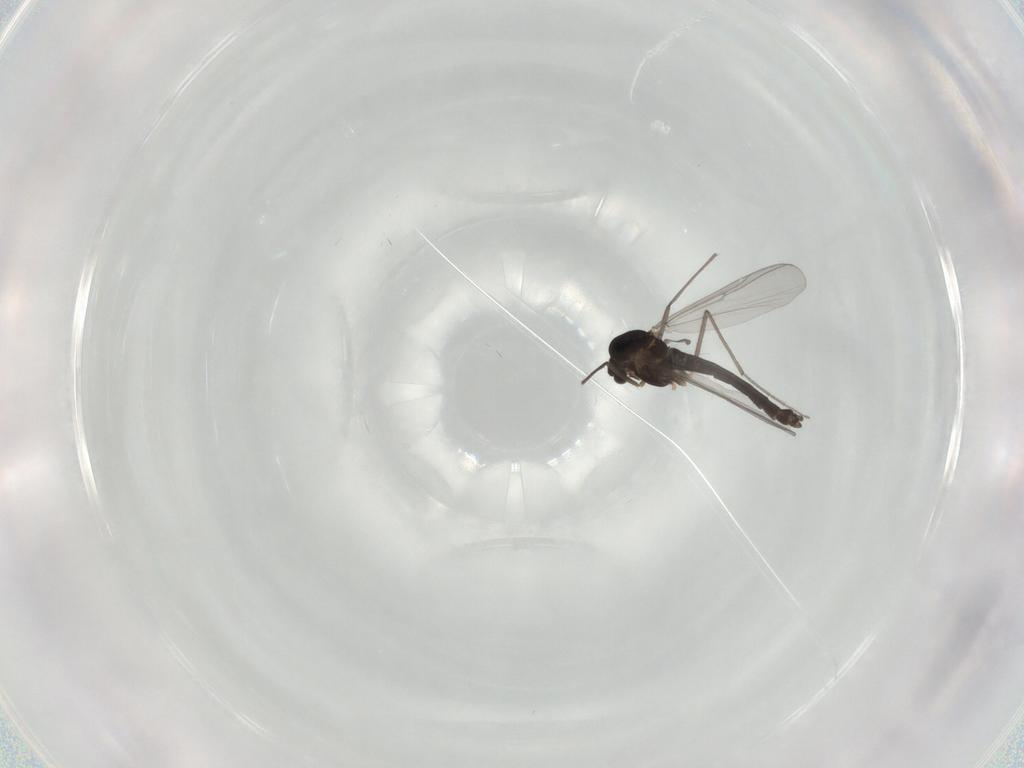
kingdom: Animalia
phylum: Arthropoda
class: Insecta
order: Diptera
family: Chironomidae
